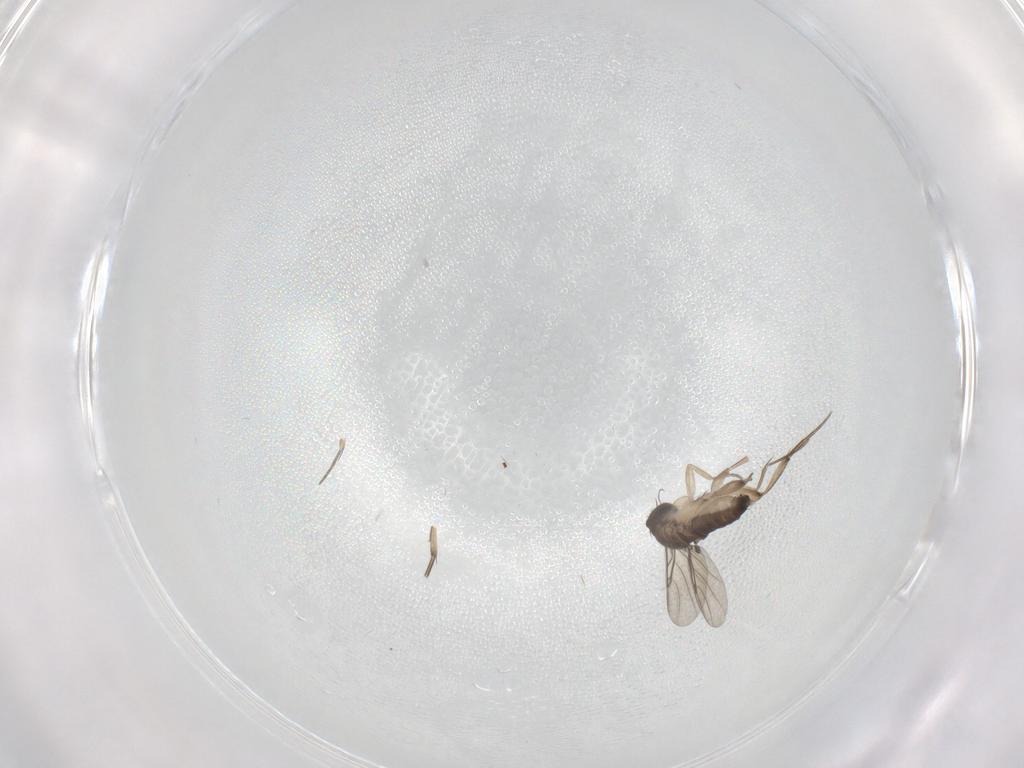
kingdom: Animalia
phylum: Arthropoda
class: Insecta
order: Diptera
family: Phoridae
